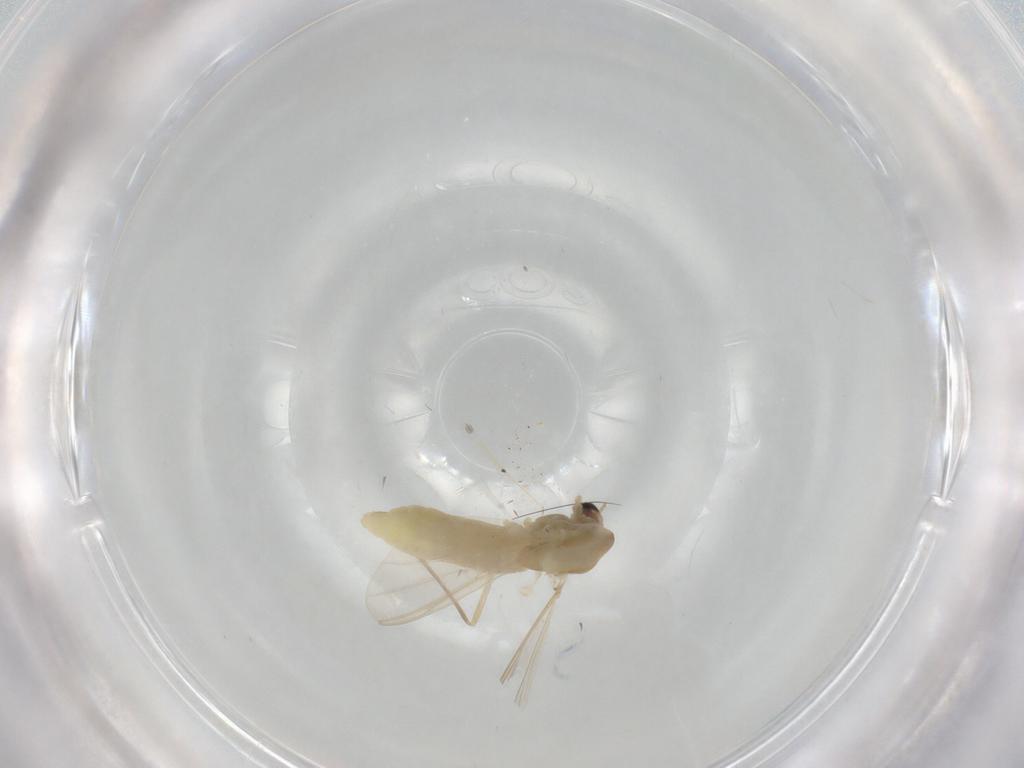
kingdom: Animalia
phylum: Arthropoda
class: Insecta
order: Diptera
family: Chironomidae
